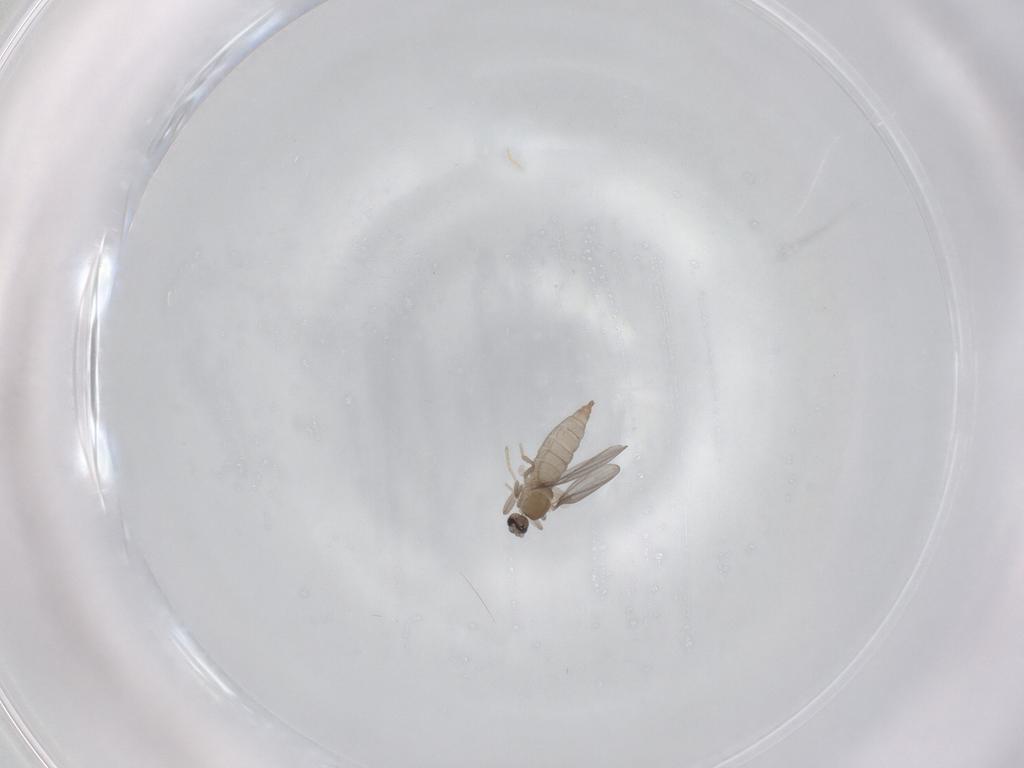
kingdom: Animalia
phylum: Arthropoda
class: Insecta
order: Diptera
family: Cecidomyiidae
